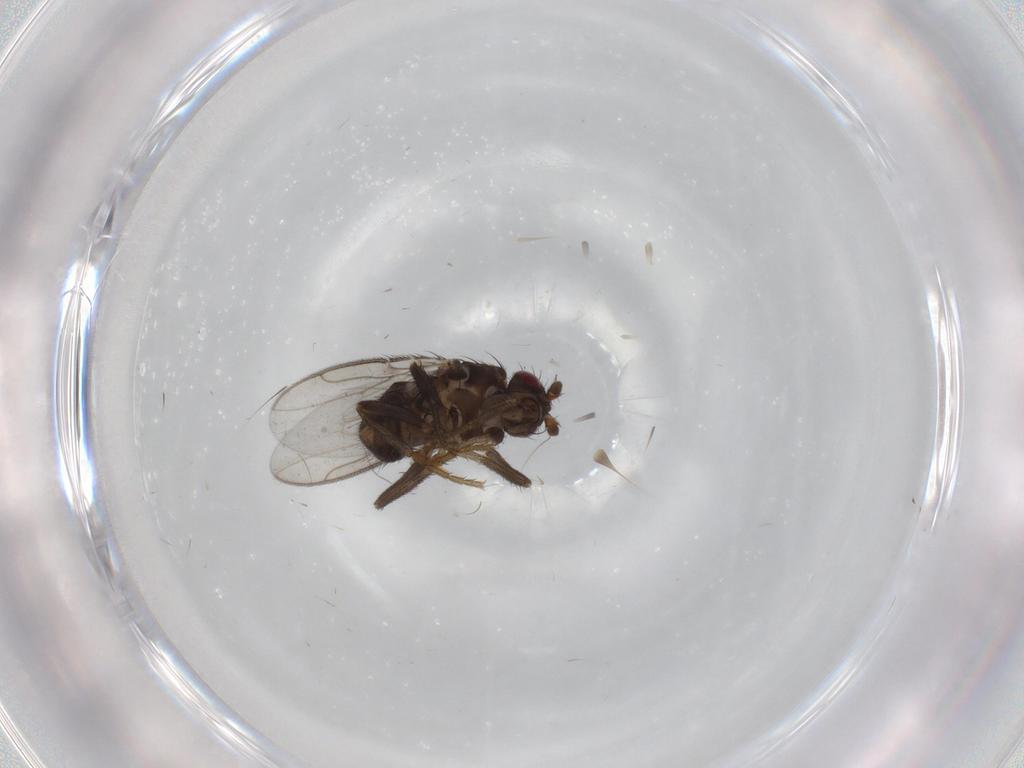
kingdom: Animalia
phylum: Arthropoda
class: Insecta
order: Diptera
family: Sphaeroceridae
